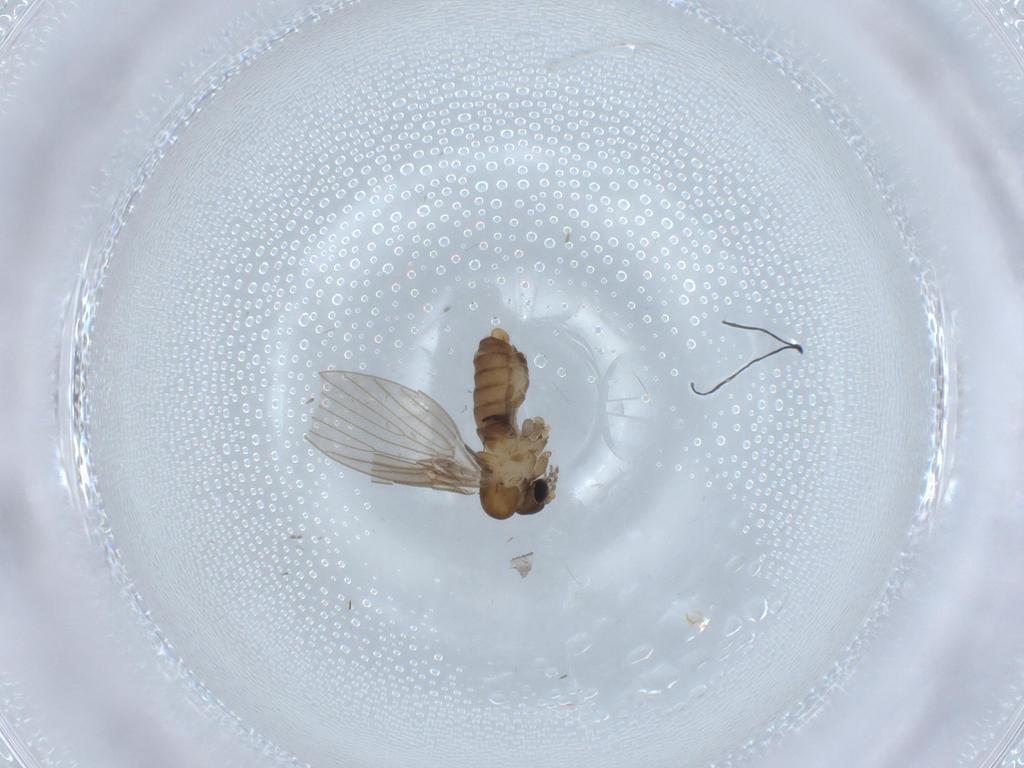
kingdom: Animalia
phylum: Arthropoda
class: Insecta
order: Diptera
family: Psychodidae
